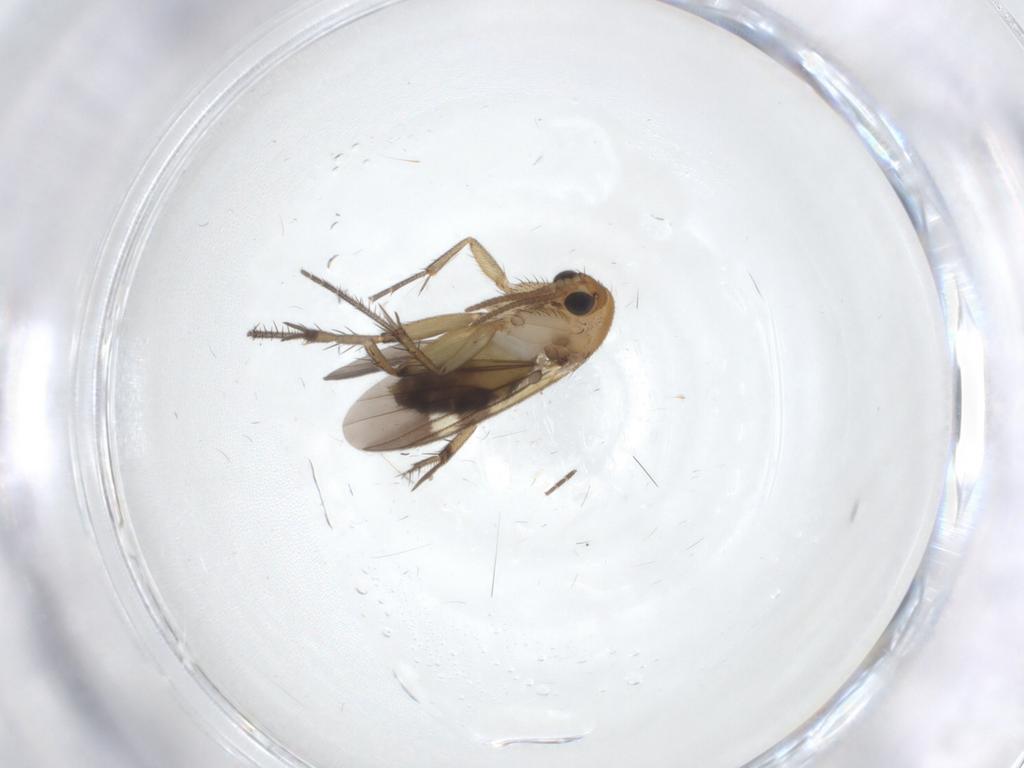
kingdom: Animalia
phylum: Arthropoda
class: Insecta
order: Diptera
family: Sphaeroceridae
